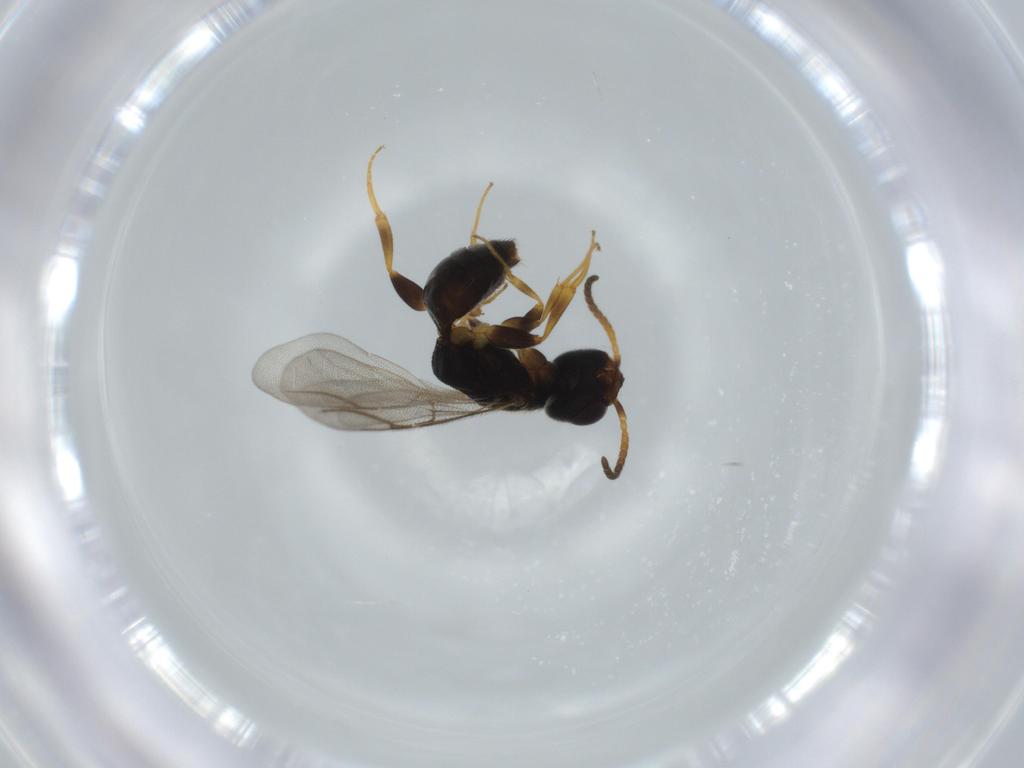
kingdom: Animalia
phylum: Arthropoda
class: Insecta
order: Hymenoptera
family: Bethylidae
